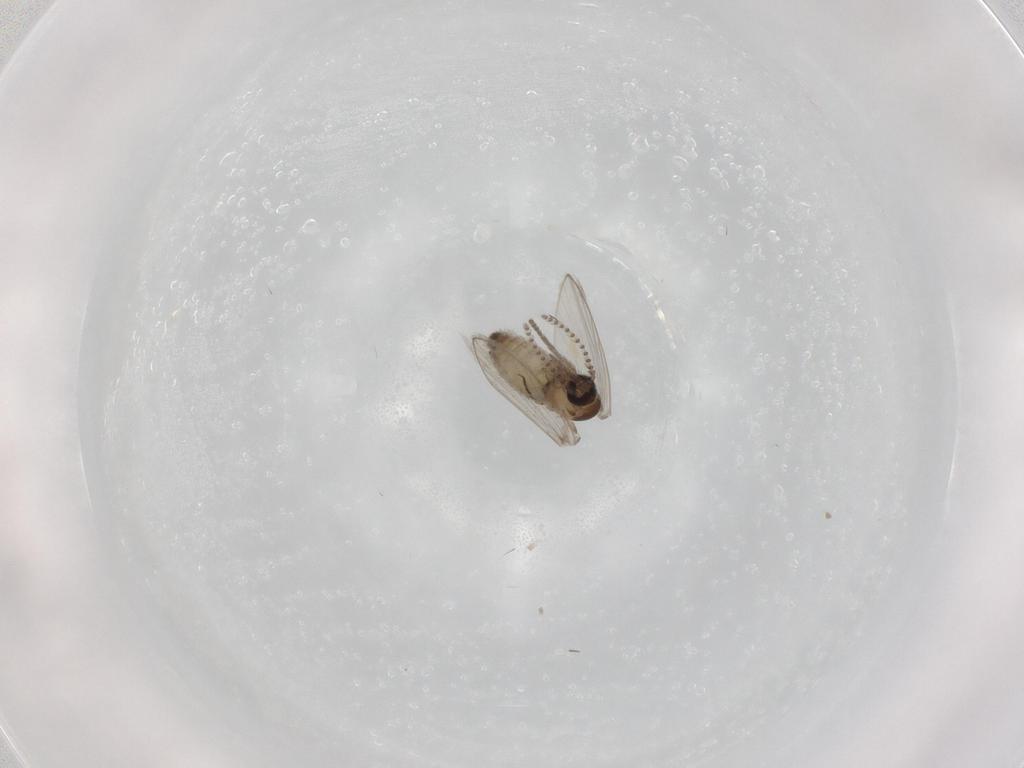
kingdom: Animalia
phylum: Arthropoda
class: Insecta
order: Diptera
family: Psychodidae
